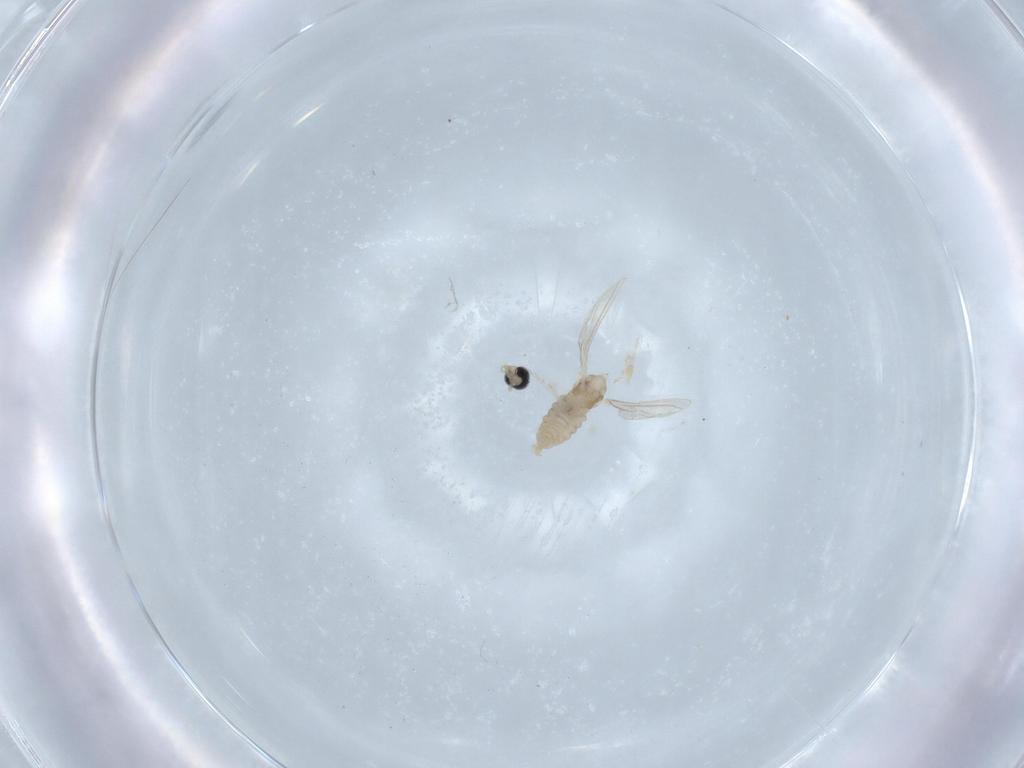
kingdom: Animalia
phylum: Arthropoda
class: Insecta
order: Diptera
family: Cecidomyiidae
